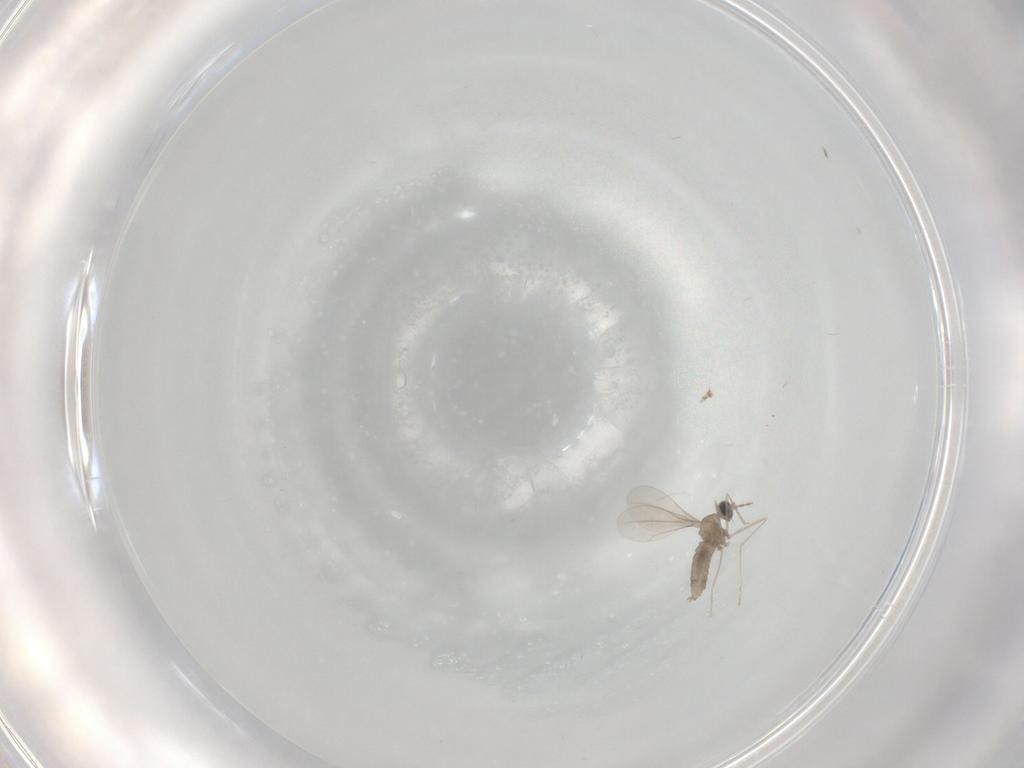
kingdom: Animalia
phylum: Arthropoda
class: Insecta
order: Diptera
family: Cecidomyiidae
